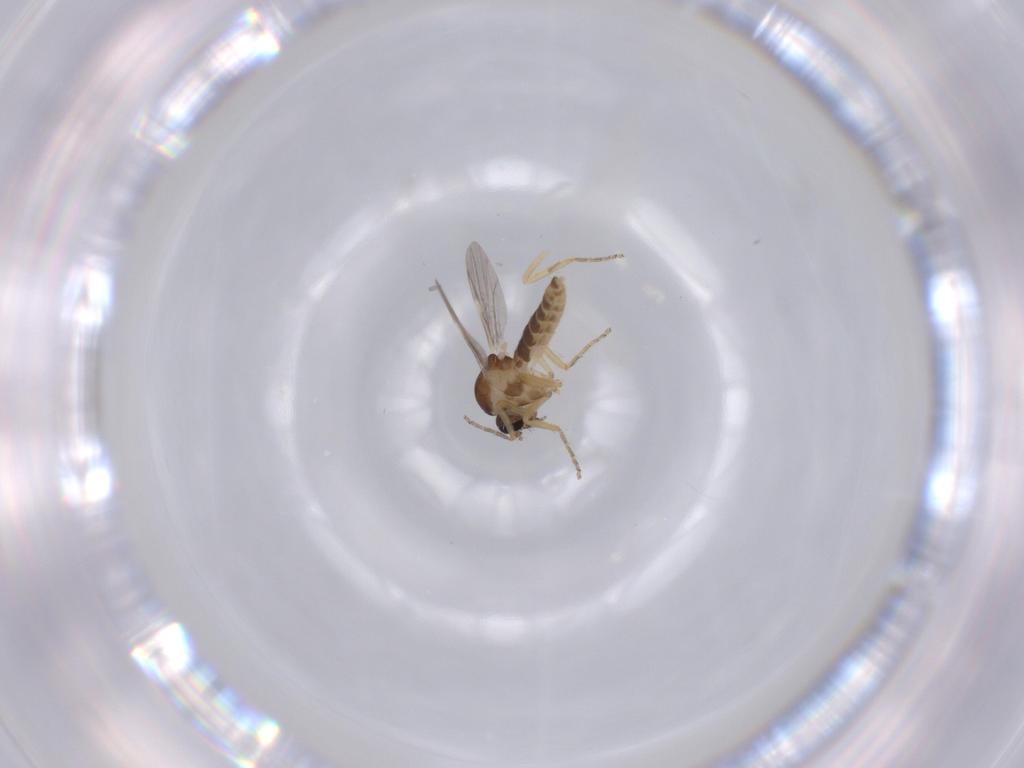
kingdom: Animalia
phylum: Arthropoda
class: Insecta
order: Diptera
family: Ceratopogonidae
